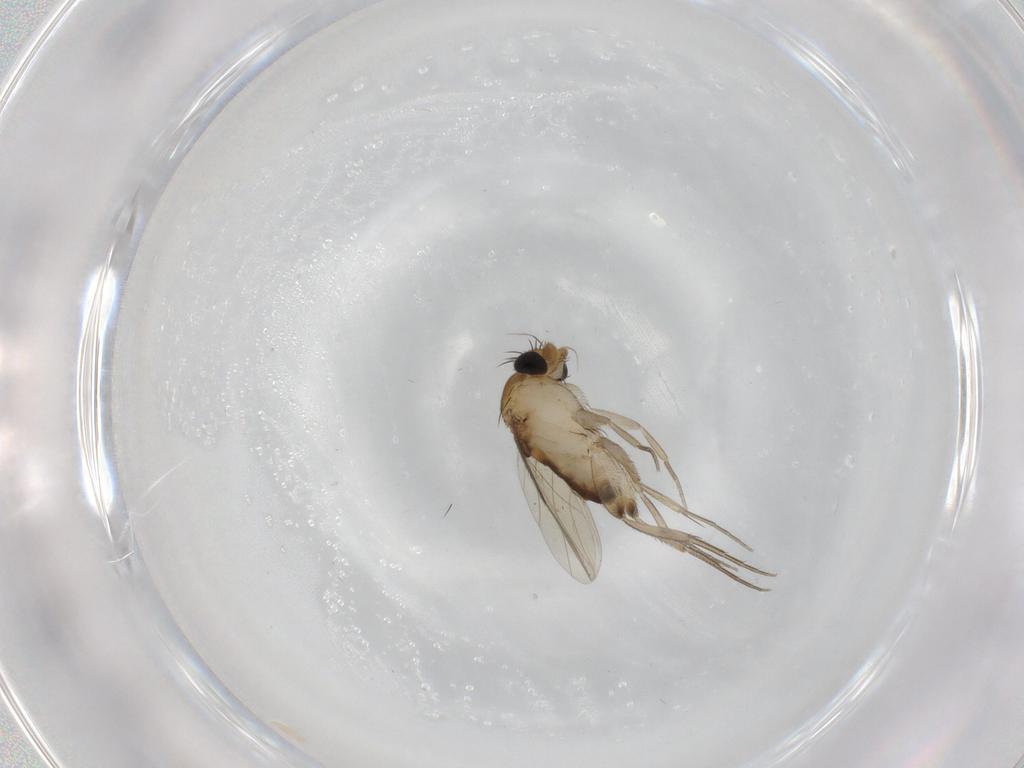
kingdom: Animalia
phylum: Arthropoda
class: Insecta
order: Diptera
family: Phoridae
